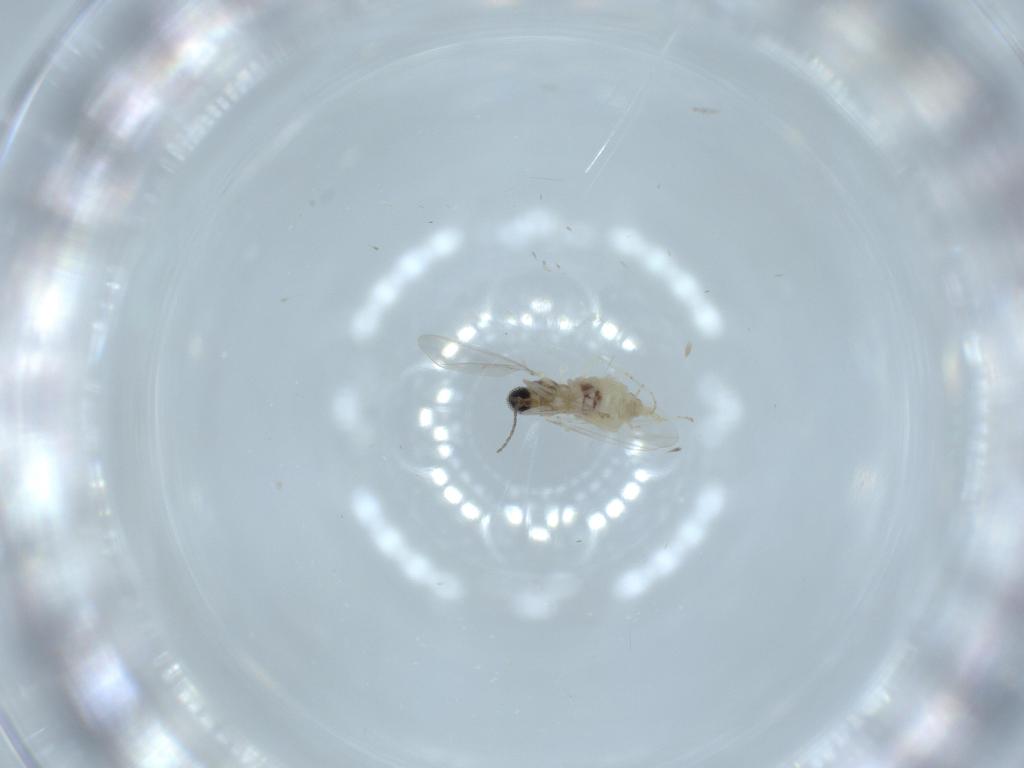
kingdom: Animalia
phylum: Arthropoda
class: Insecta
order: Diptera
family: Cecidomyiidae
